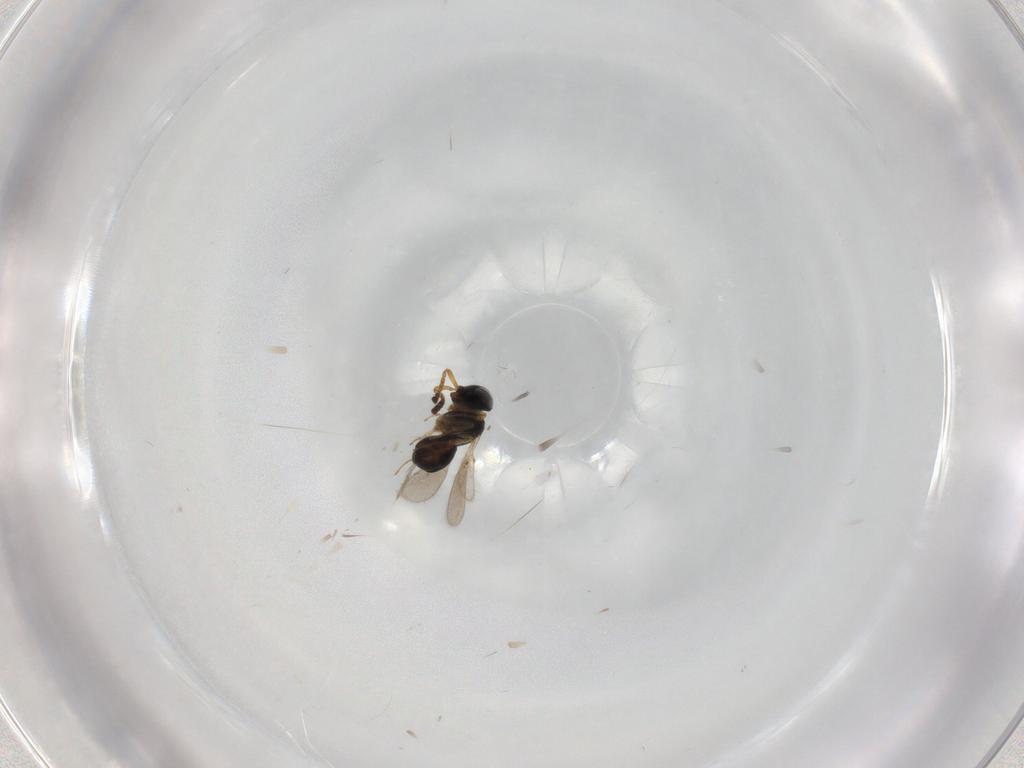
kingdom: Animalia
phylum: Arthropoda
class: Insecta
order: Hymenoptera
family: Scelionidae
